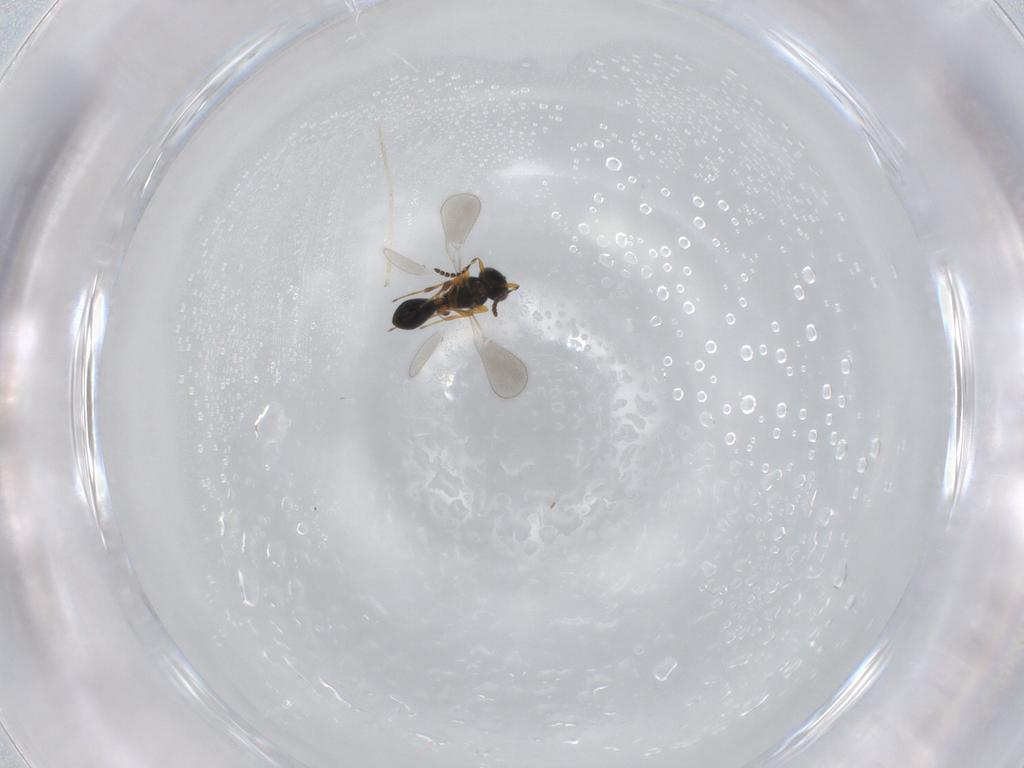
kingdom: Animalia
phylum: Arthropoda
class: Insecta
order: Hymenoptera
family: Platygastridae
